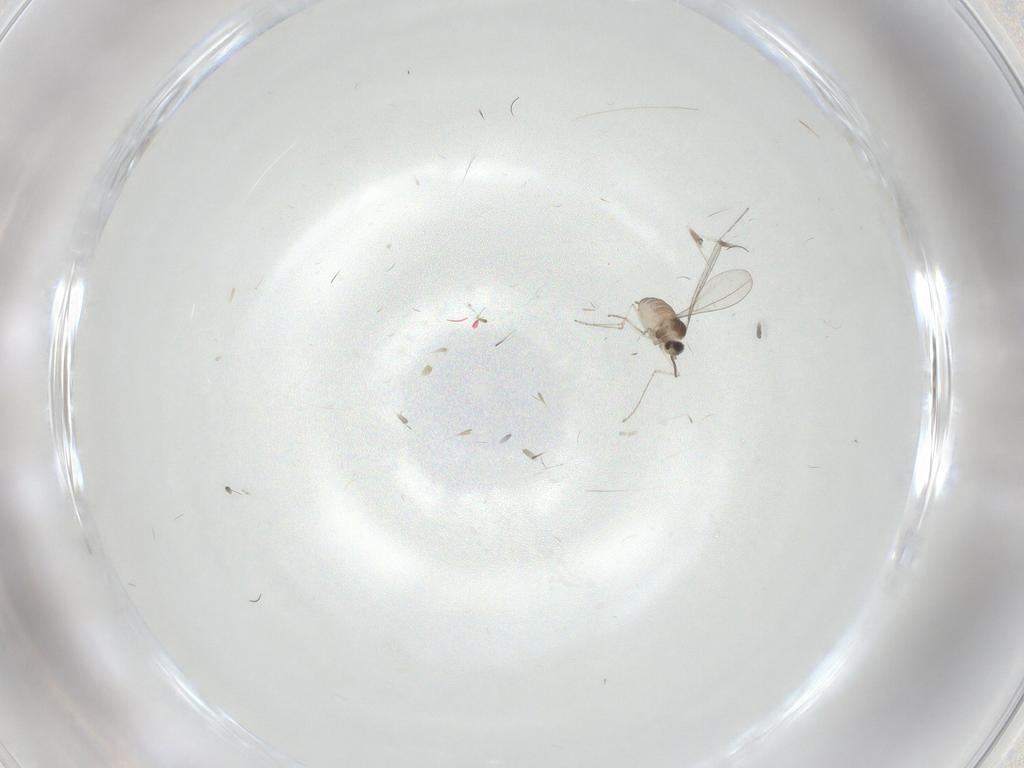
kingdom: Animalia
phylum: Arthropoda
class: Insecta
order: Diptera
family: Cecidomyiidae
